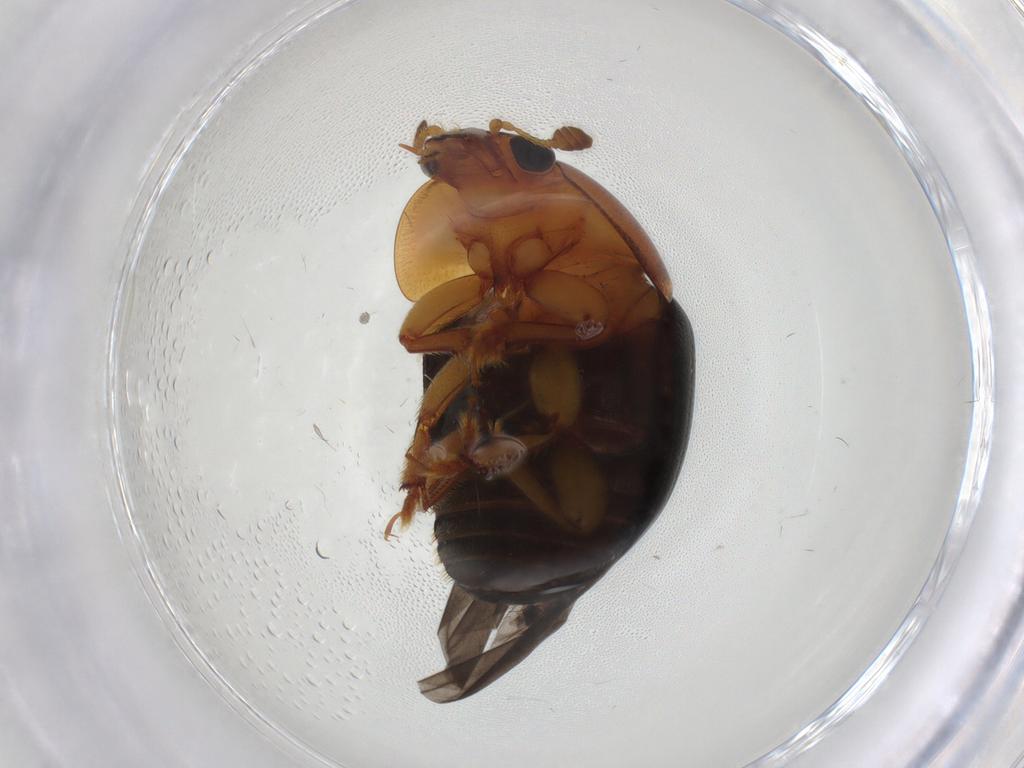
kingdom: Animalia
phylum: Arthropoda
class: Insecta
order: Coleoptera
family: Nitidulidae
